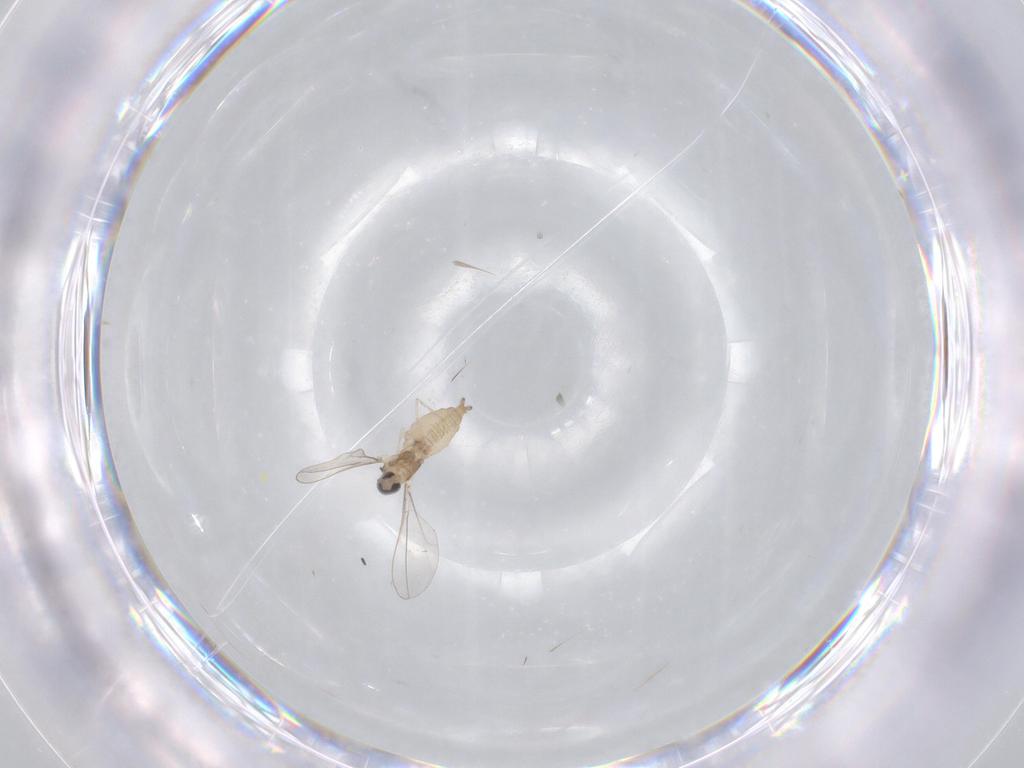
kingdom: Animalia
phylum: Arthropoda
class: Insecta
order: Diptera
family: Cecidomyiidae
